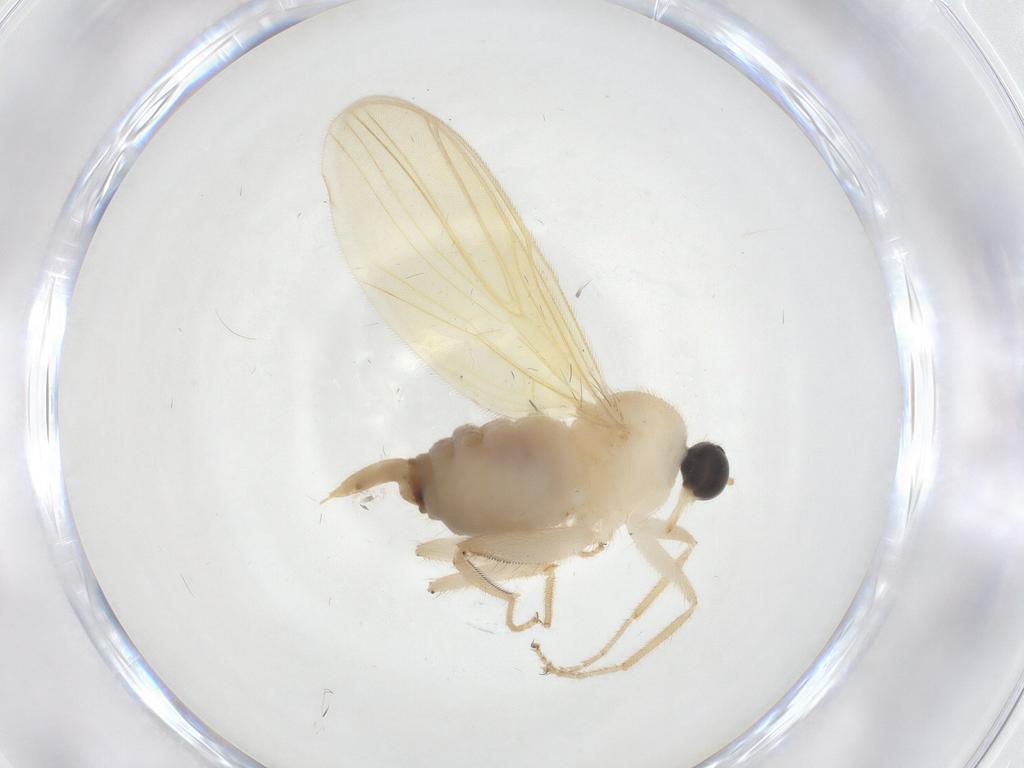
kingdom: Animalia
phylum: Arthropoda
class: Insecta
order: Diptera
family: Hybotidae
